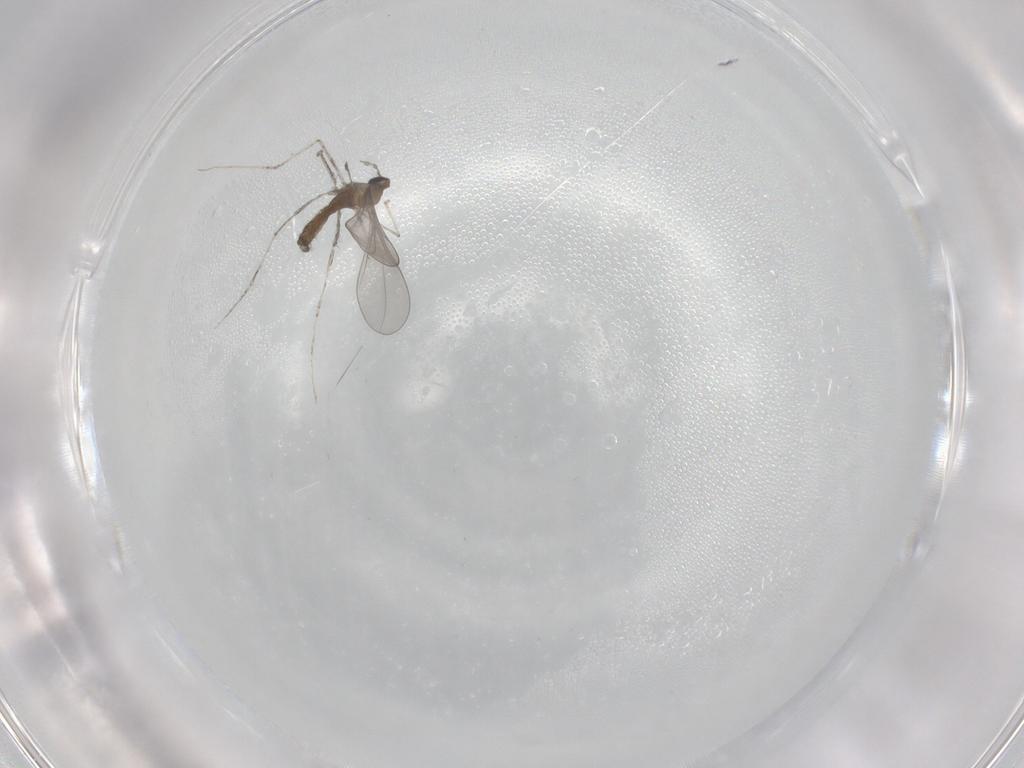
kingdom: Animalia
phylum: Arthropoda
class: Insecta
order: Diptera
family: Cecidomyiidae
